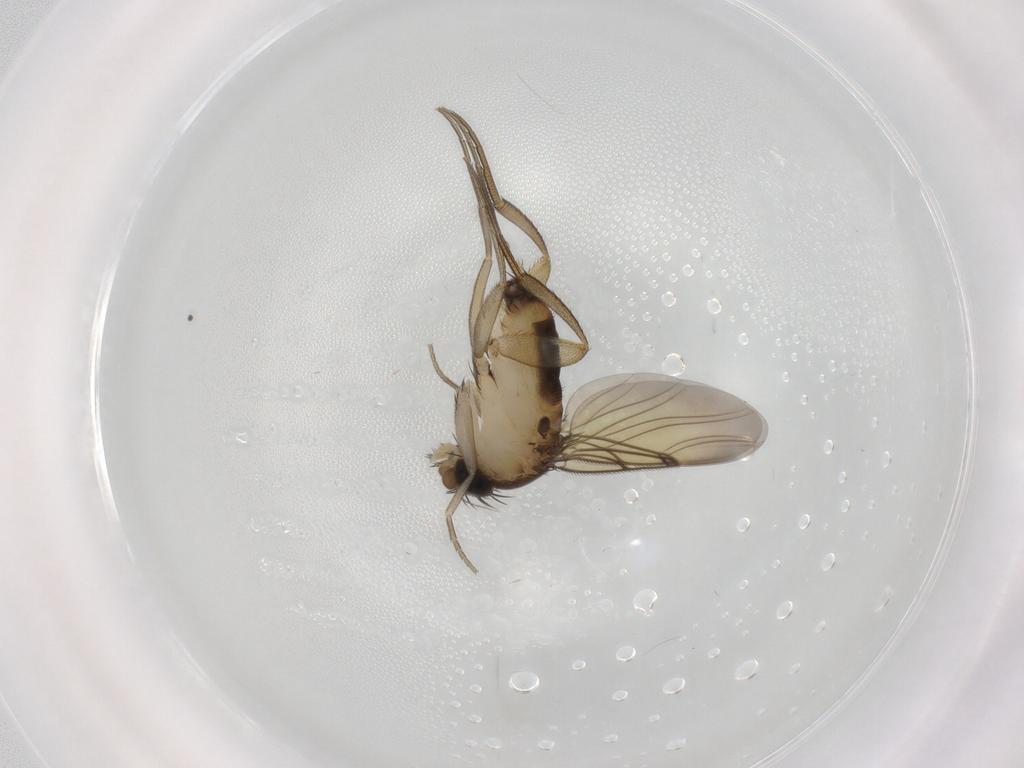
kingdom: Animalia
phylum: Arthropoda
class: Insecta
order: Diptera
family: Sciaridae
